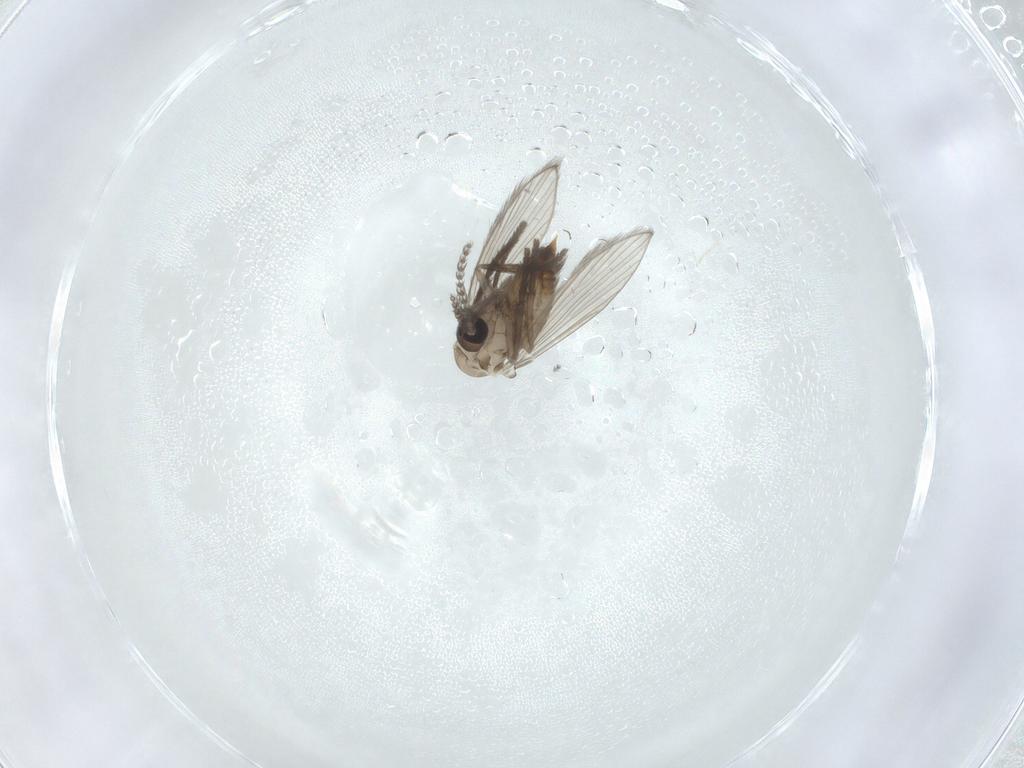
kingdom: Animalia
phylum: Arthropoda
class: Insecta
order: Diptera
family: Psychodidae
